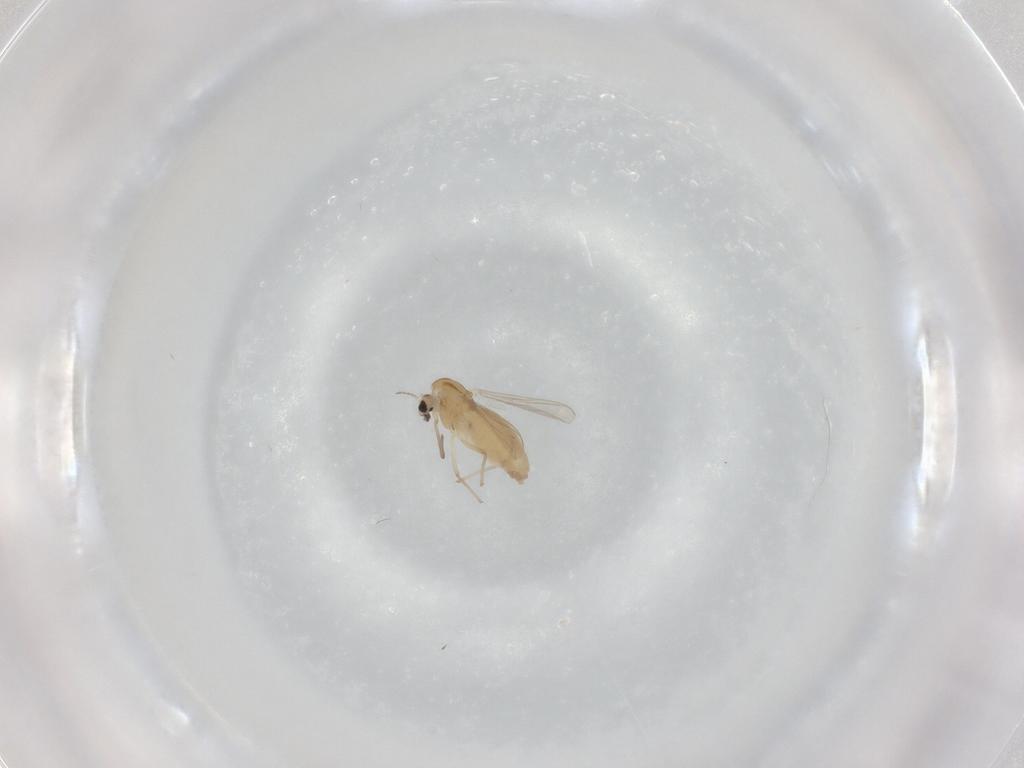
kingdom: Animalia
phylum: Arthropoda
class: Insecta
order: Diptera
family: Chironomidae
